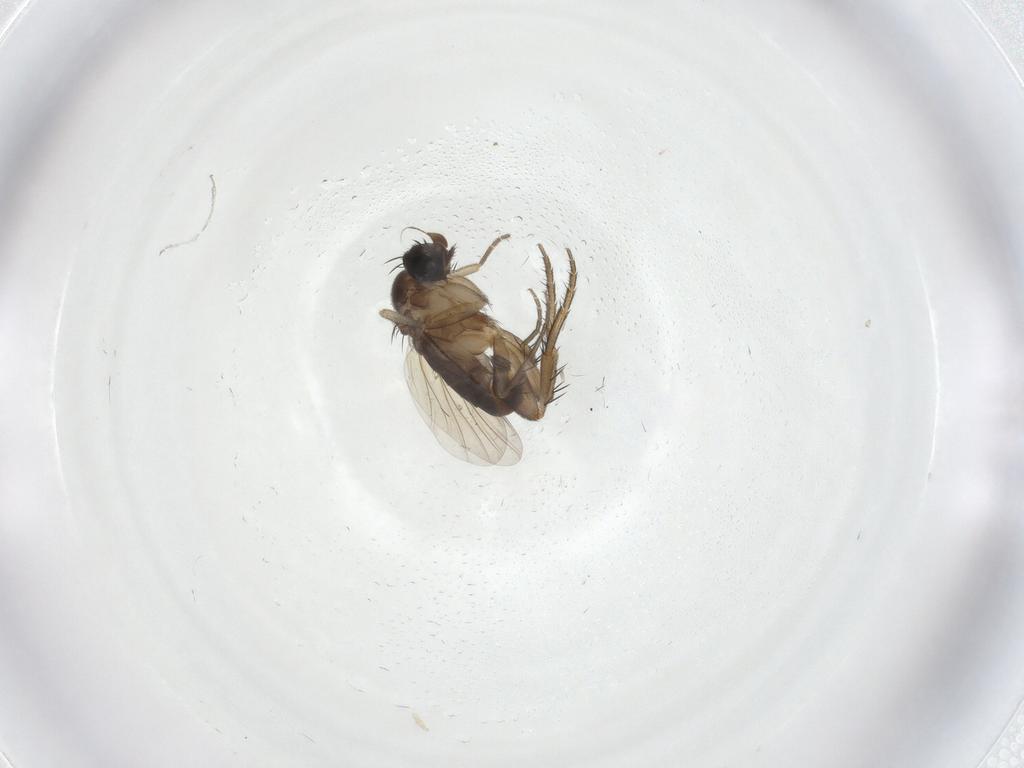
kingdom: Animalia
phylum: Arthropoda
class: Insecta
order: Diptera
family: Phoridae
